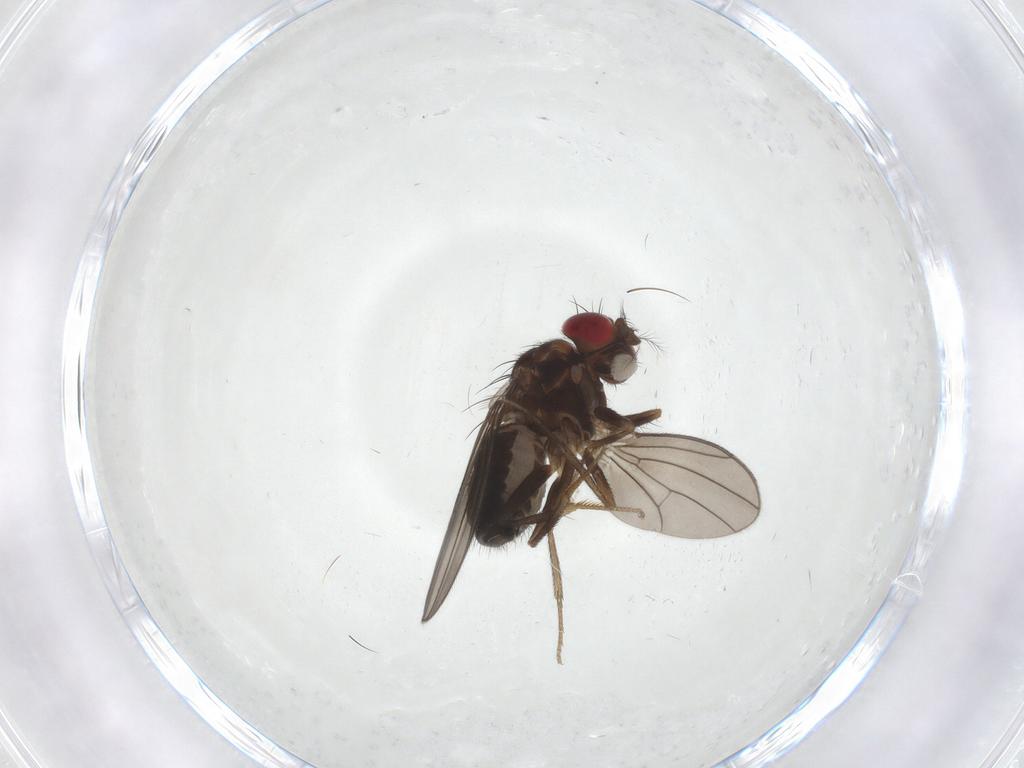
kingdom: Animalia
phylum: Arthropoda
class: Insecta
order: Diptera
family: Drosophilidae
